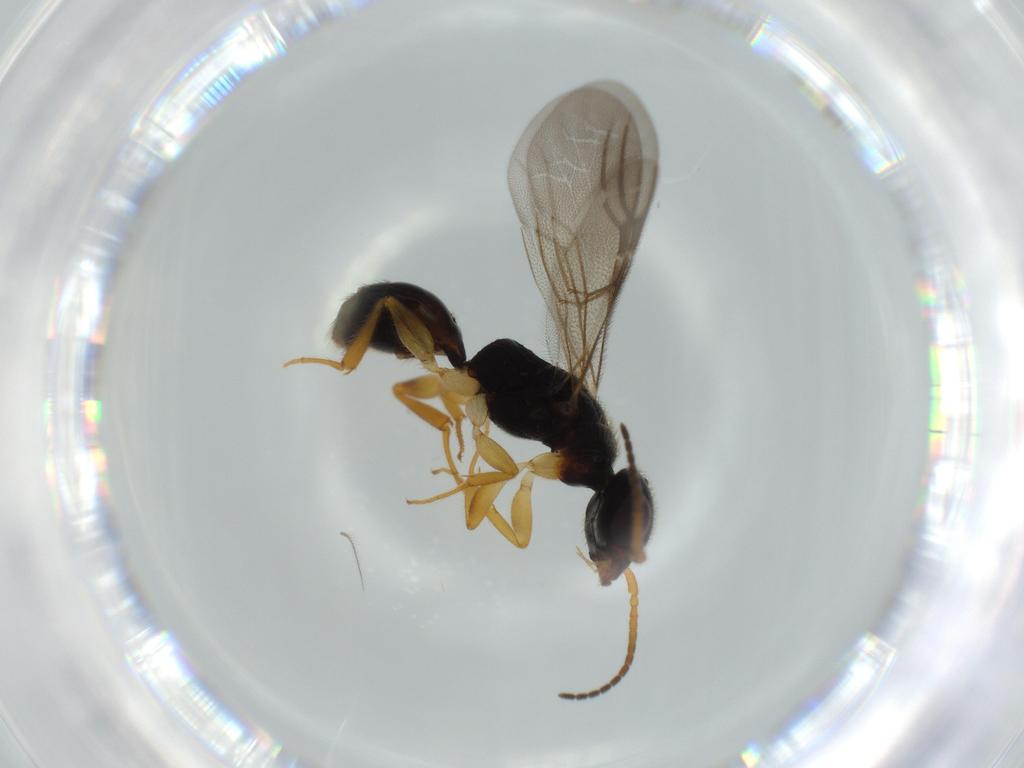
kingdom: Animalia
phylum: Arthropoda
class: Insecta
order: Hymenoptera
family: Bethylidae
